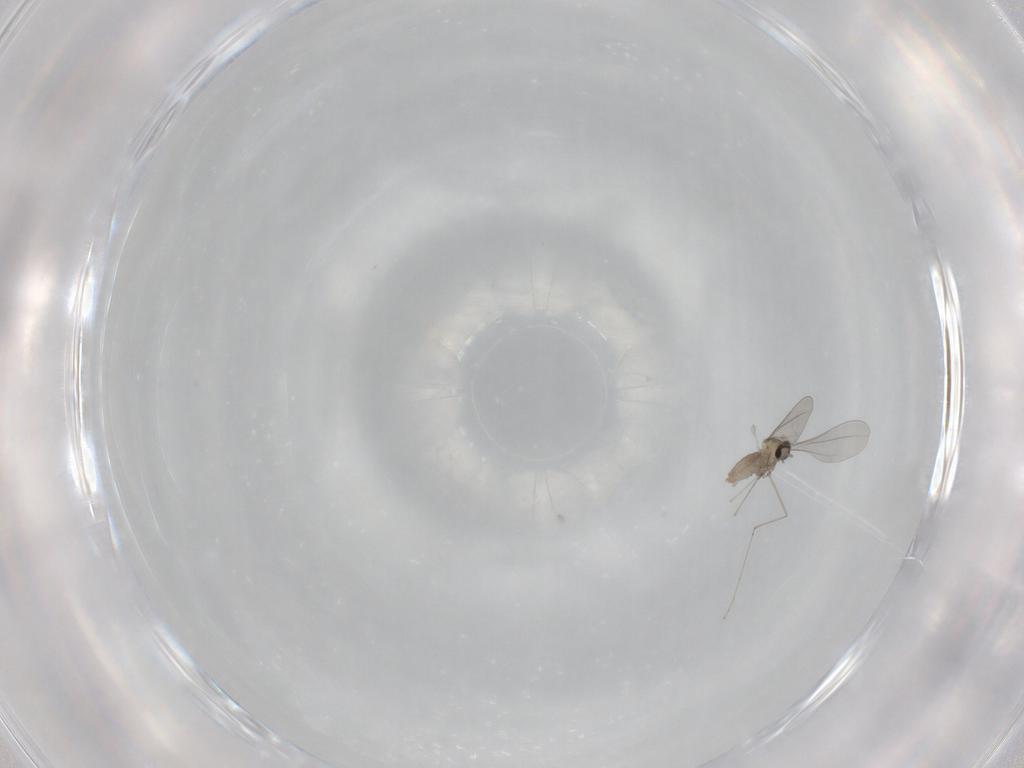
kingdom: Animalia
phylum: Arthropoda
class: Insecta
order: Diptera
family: Cecidomyiidae
